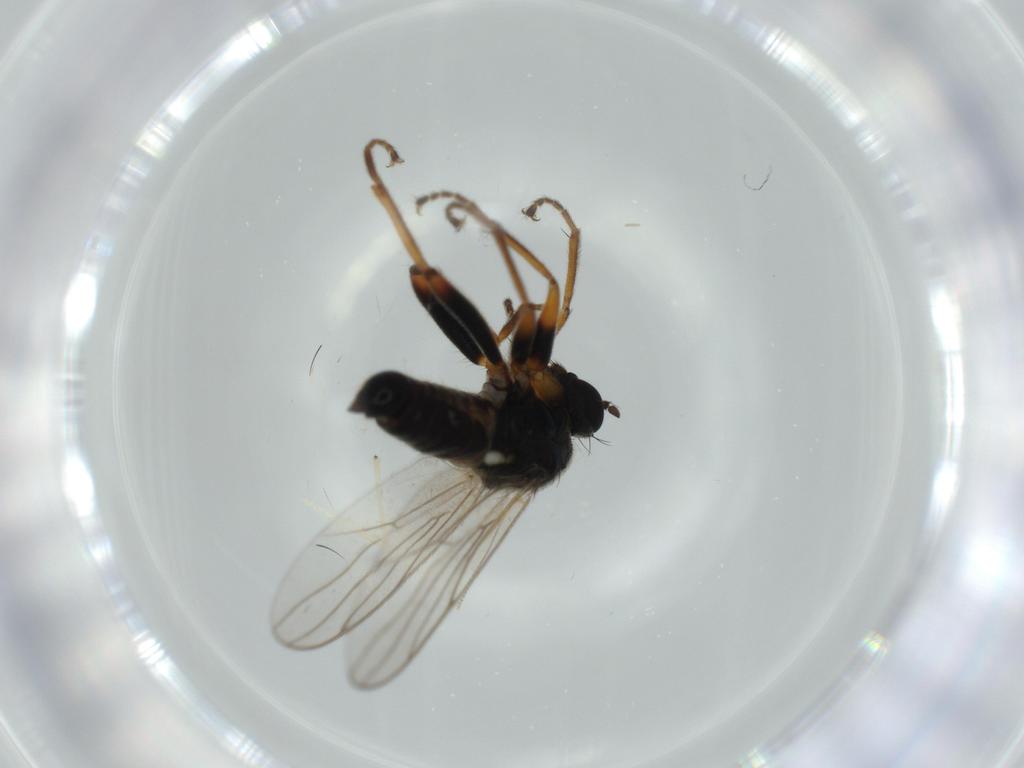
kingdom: Animalia
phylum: Arthropoda
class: Insecta
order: Diptera
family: Hybotidae
